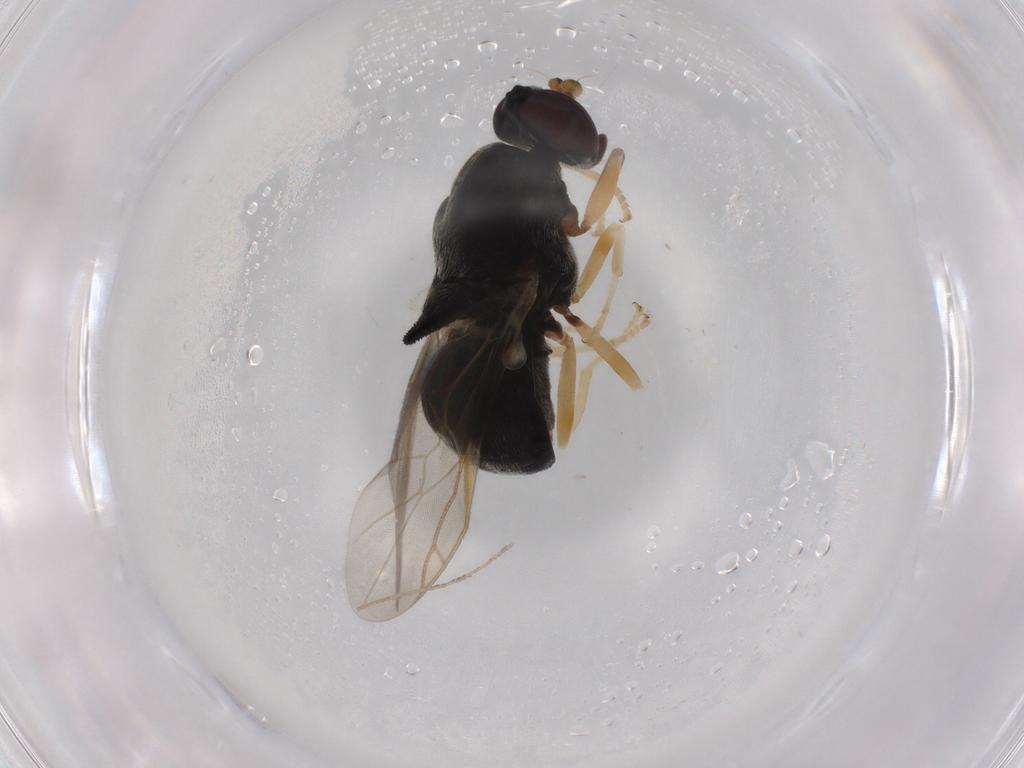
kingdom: Animalia
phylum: Arthropoda
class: Insecta
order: Diptera
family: Stratiomyidae
